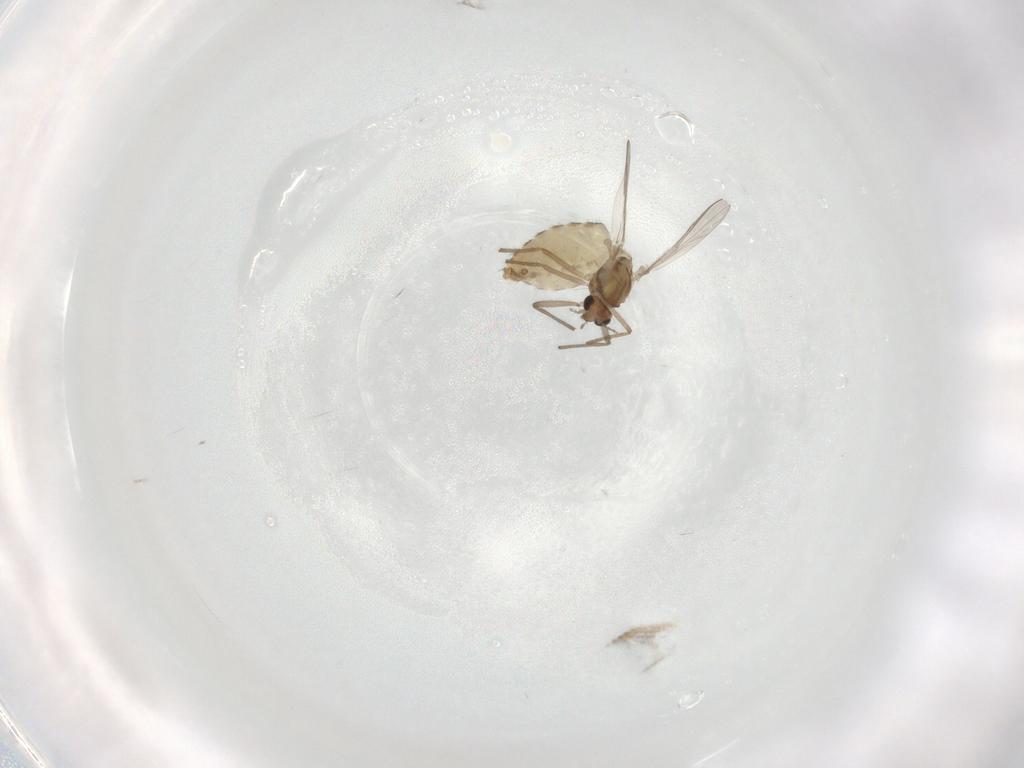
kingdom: Animalia
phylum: Arthropoda
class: Insecta
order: Diptera
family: Chironomidae
